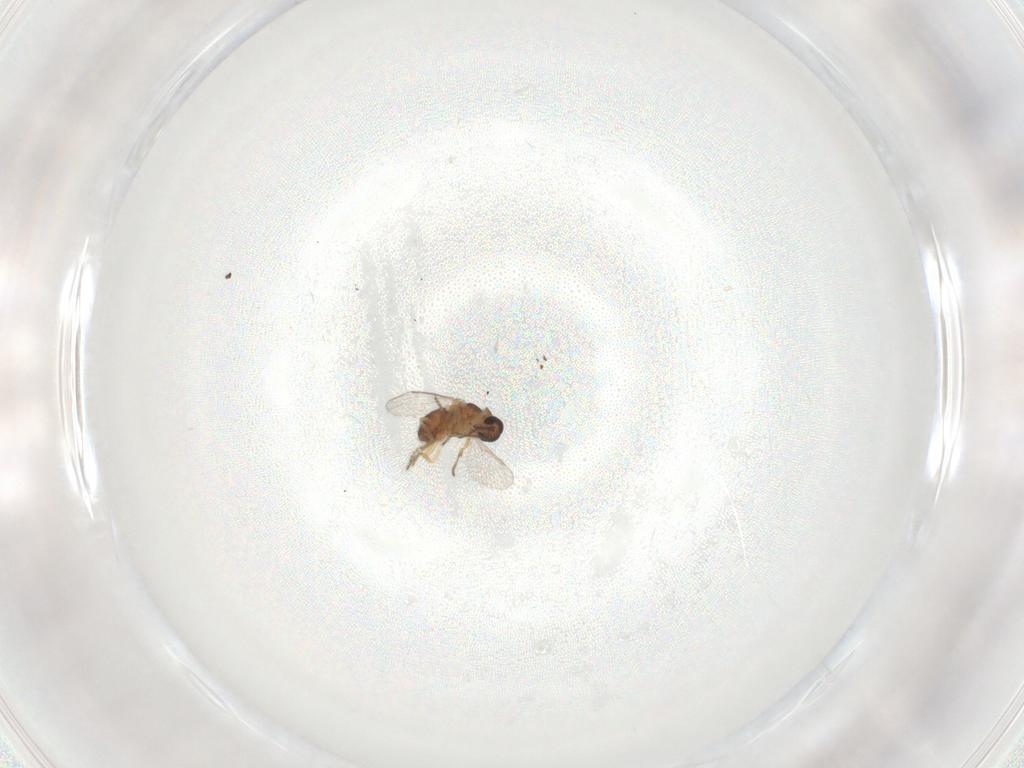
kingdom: Animalia
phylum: Arthropoda
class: Insecta
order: Diptera
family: Ceratopogonidae
